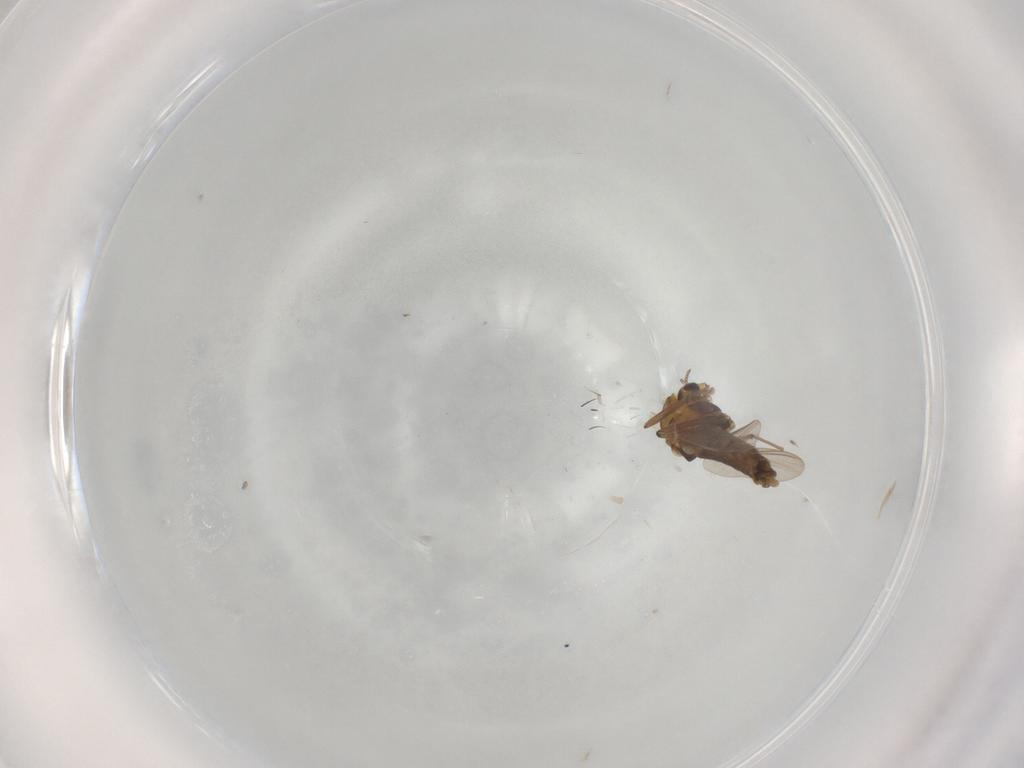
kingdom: Animalia
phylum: Arthropoda
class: Insecta
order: Diptera
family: Chironomidae
